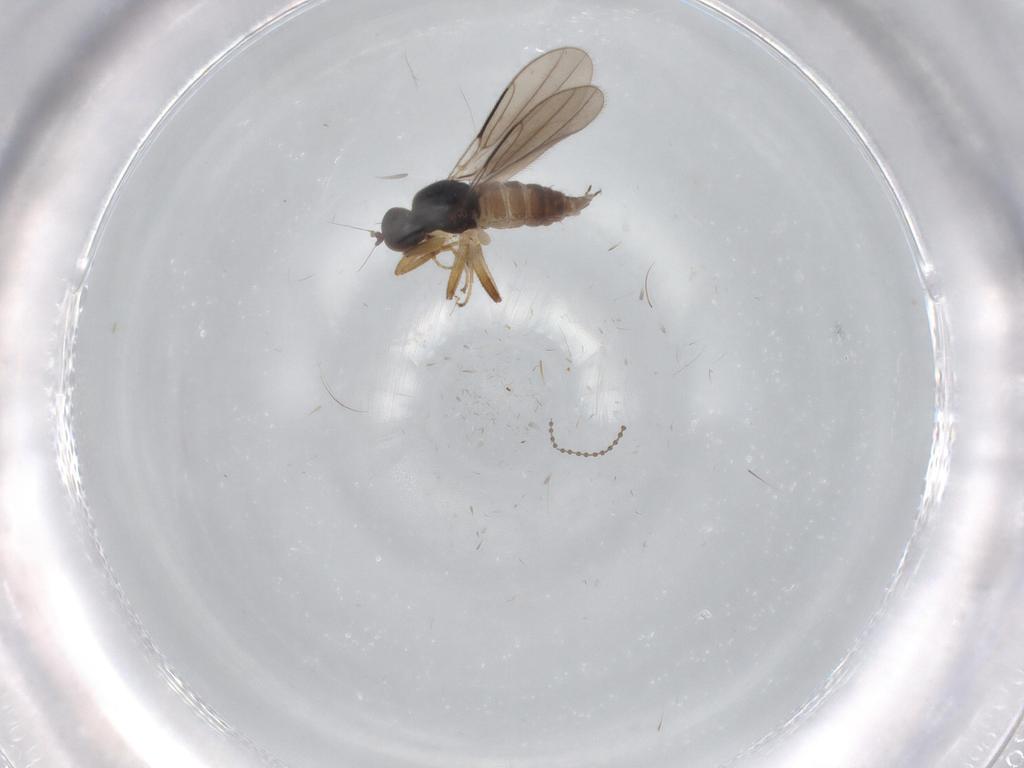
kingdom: Animalia
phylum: Arthropoda
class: Insecta
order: Diptera
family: Hybotidae
